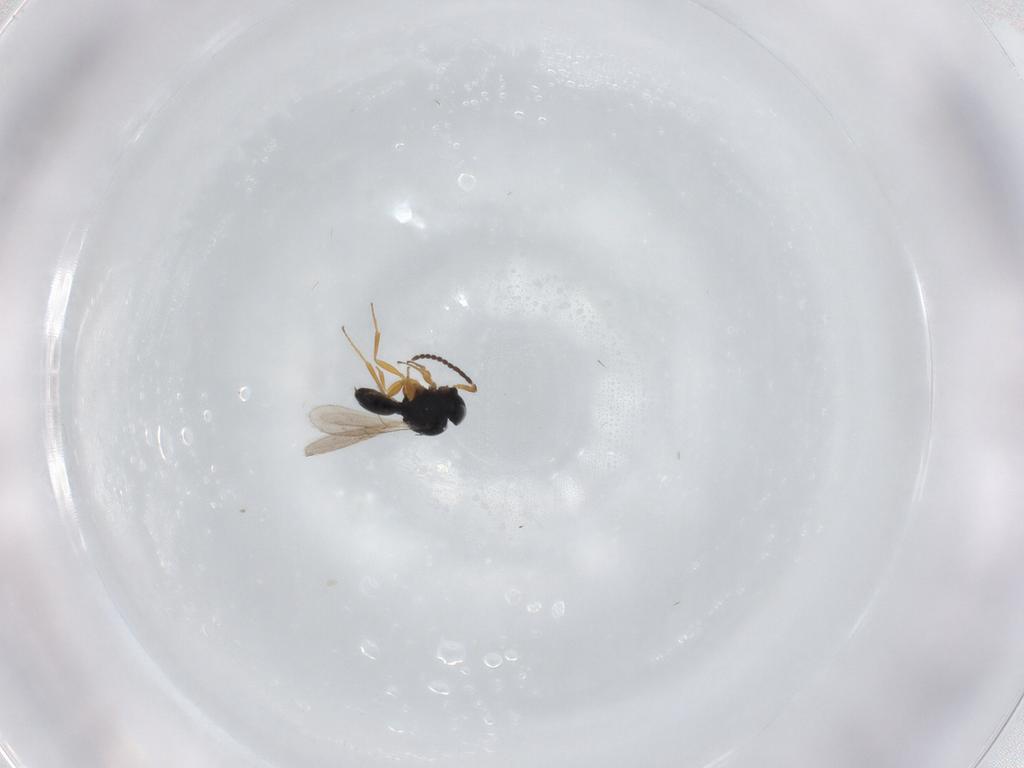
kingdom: Animalia
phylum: Arthropoda
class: Insecta
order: Hymenoptera
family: Scelionidae
